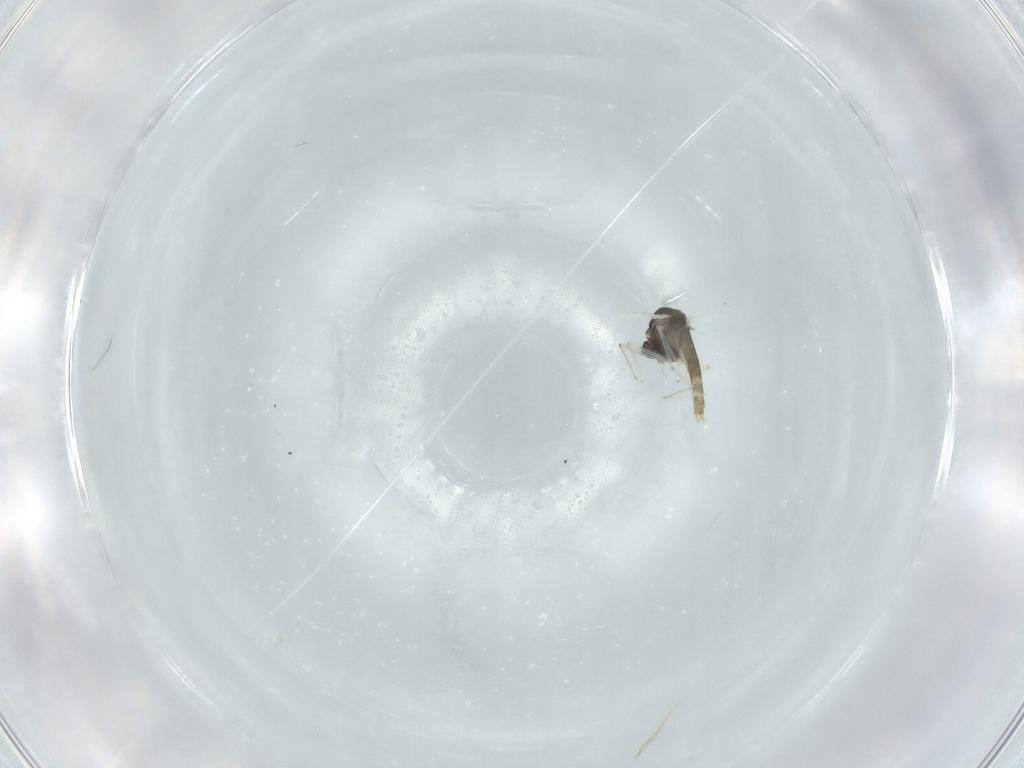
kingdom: Animalia
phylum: Arthropoda
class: Insecta
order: Diptera
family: Chironomidae
